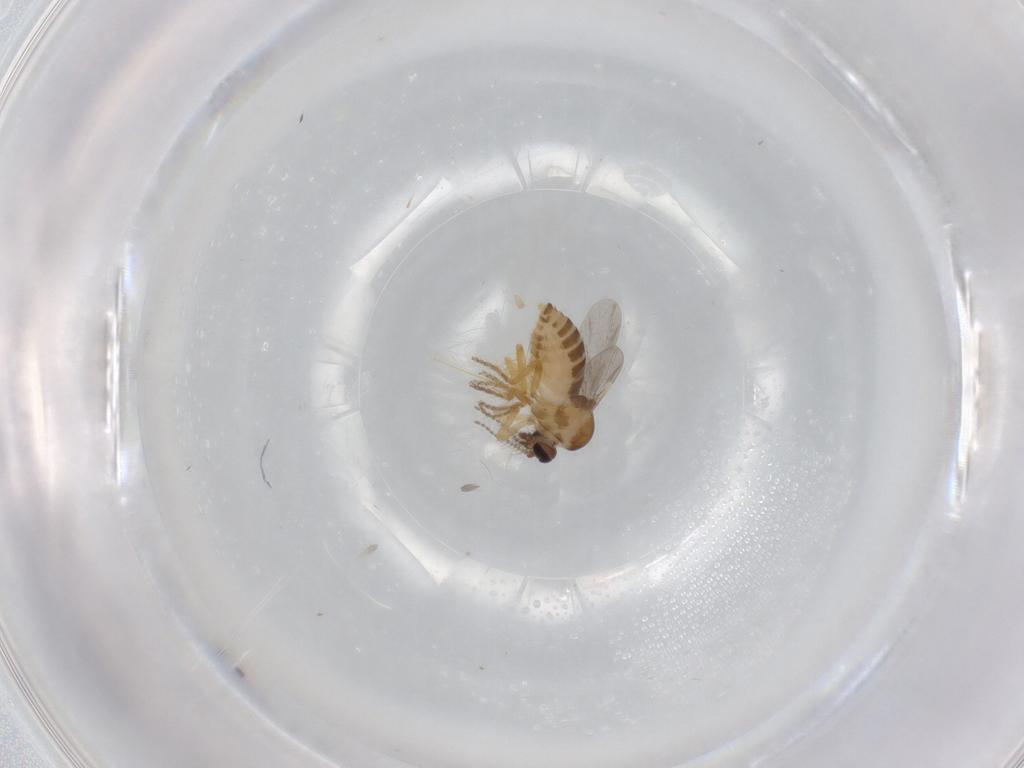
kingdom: Animalia
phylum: Arthropoda
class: Insecta
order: Diptera
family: Ceratopogonidae
